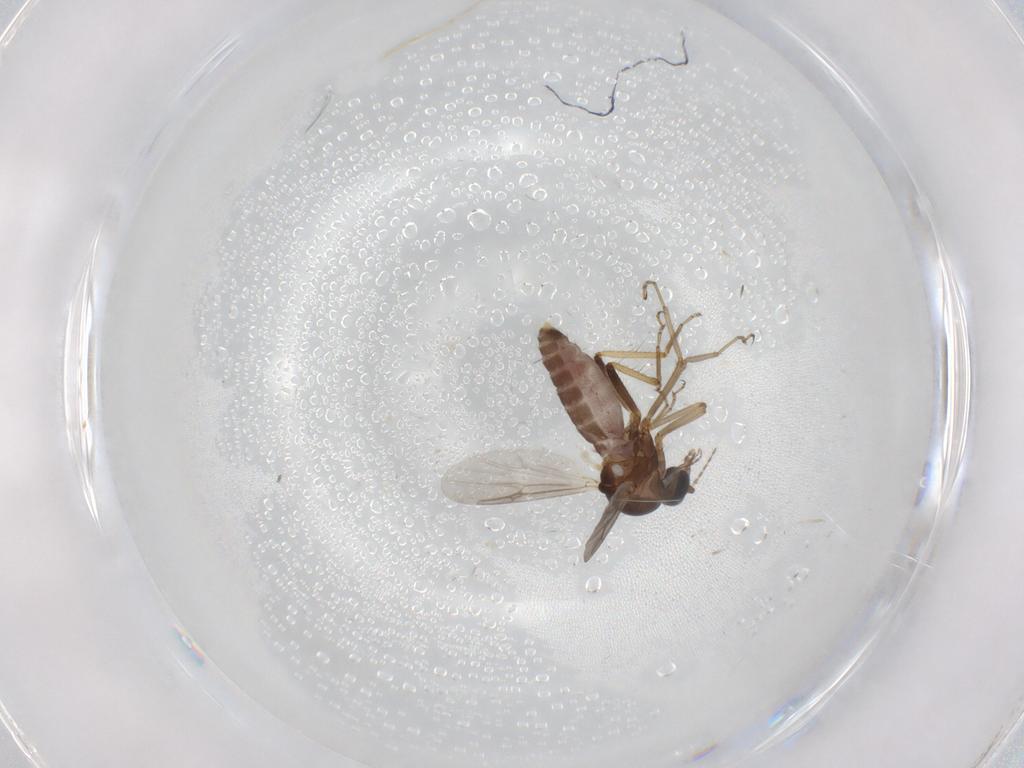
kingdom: Animalia
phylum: Arthropoda
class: Insecta
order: Diptera
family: Ceratopogonidae
